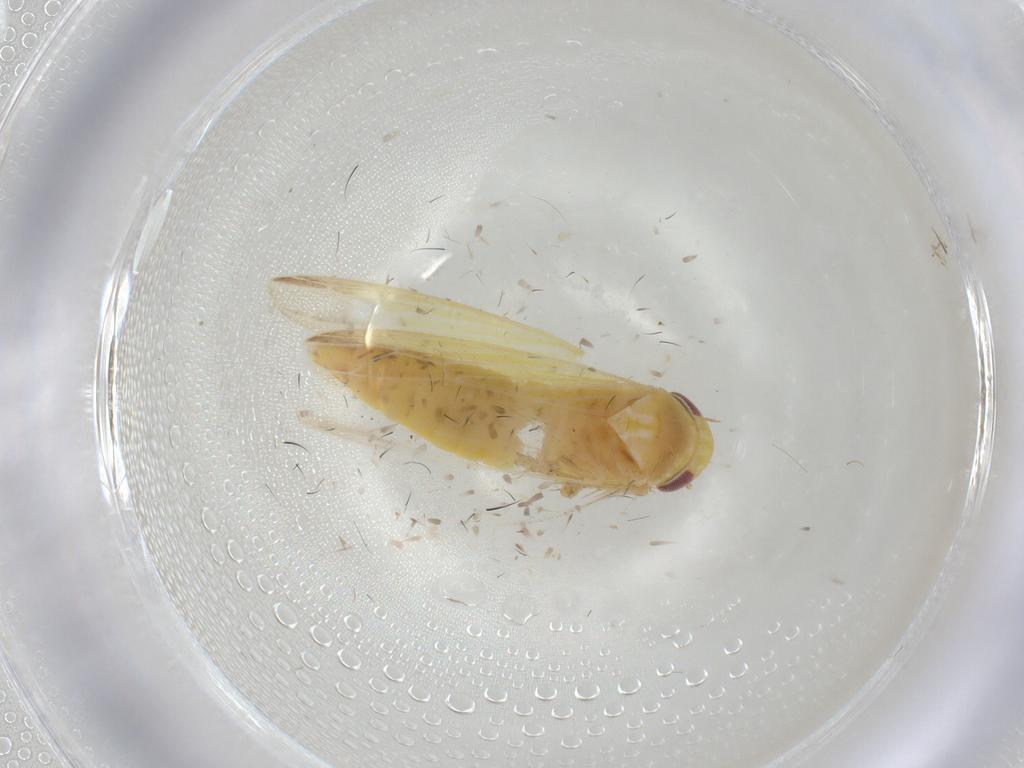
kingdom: Animalia
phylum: Arthropoda
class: Insecta
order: Hemiptera
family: Cicadellidae
